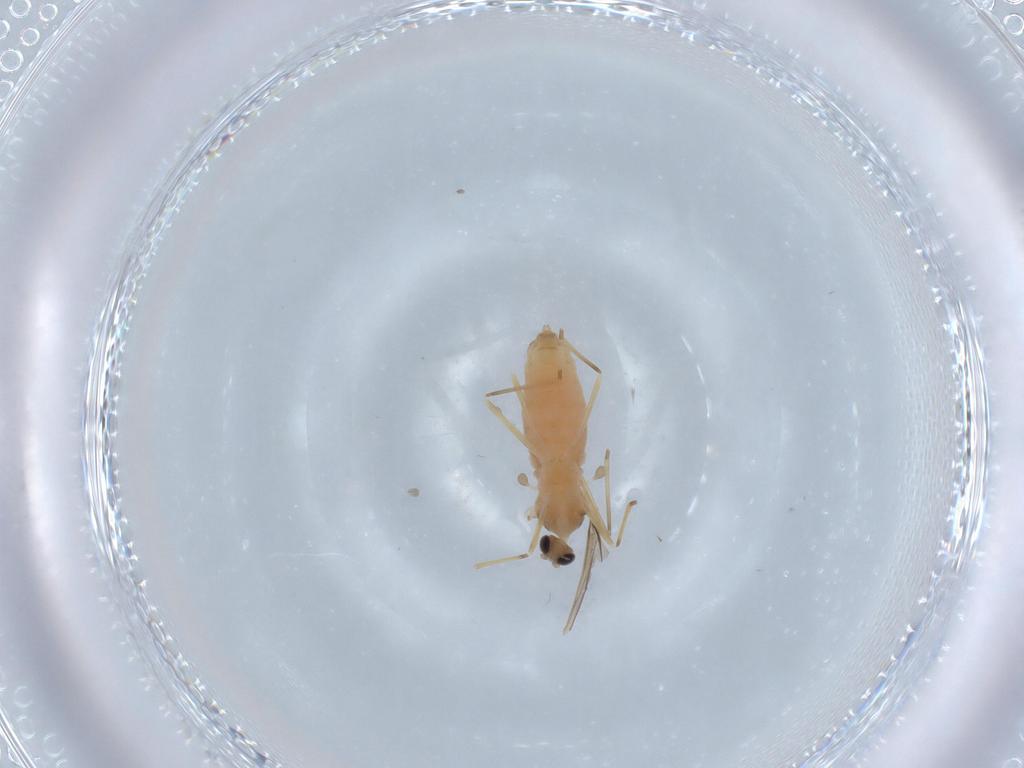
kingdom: Animalia
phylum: Arthropoda
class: Insecta
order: Diptera
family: Cecidomyiidae
